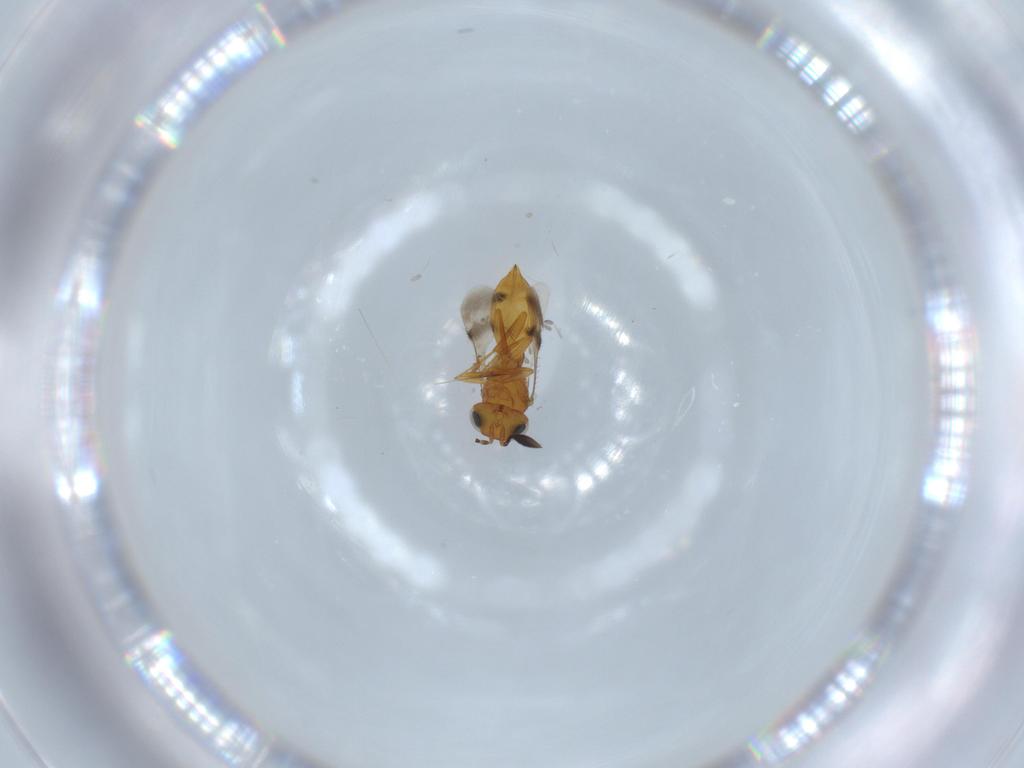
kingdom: Animalia
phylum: Arthropoda
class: Insecta
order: Hymenoptera
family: Scelionidae
